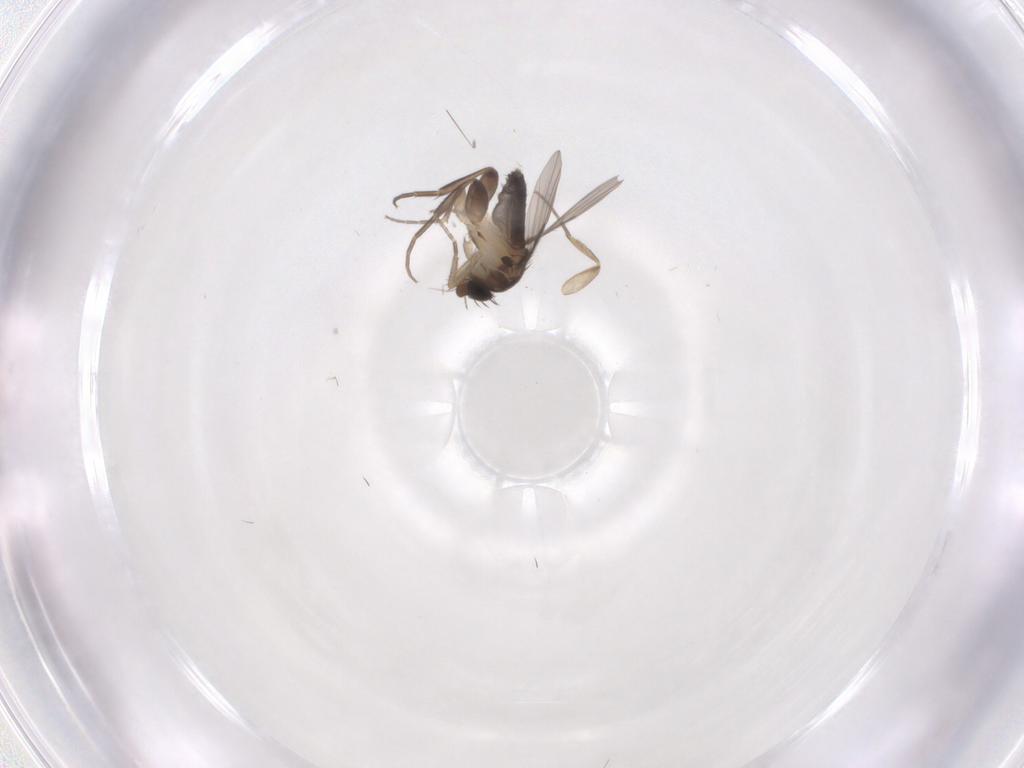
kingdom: Animalia
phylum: Arthropoda
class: Insecta
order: Diptera
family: Phoridae
